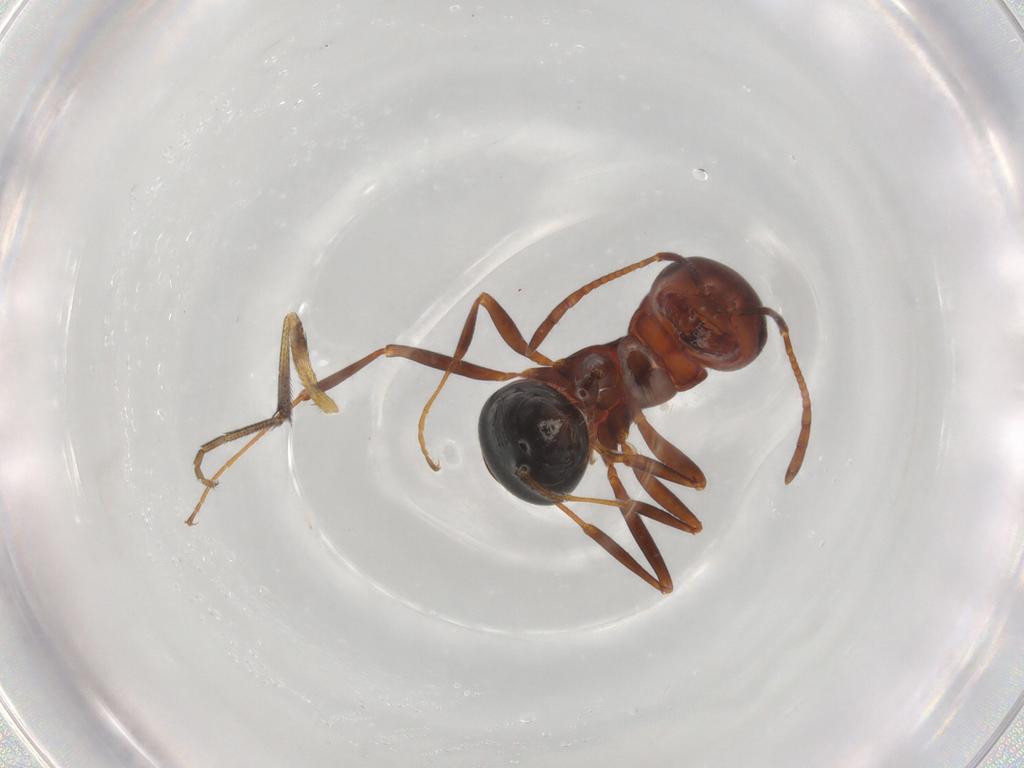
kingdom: Animalia
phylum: Arthropoda
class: Insecta
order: Hymenoptera
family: Formicidae
